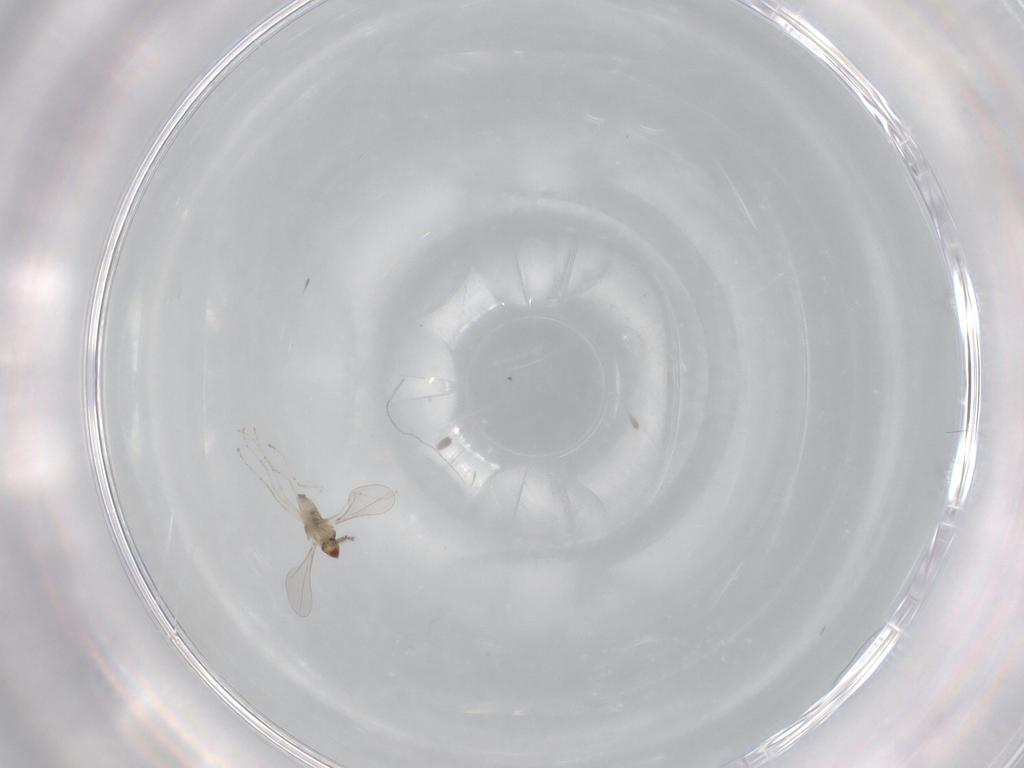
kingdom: Animalia
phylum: Arthropoda
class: Insecta
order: Diptera
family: Cecidomyiidae
